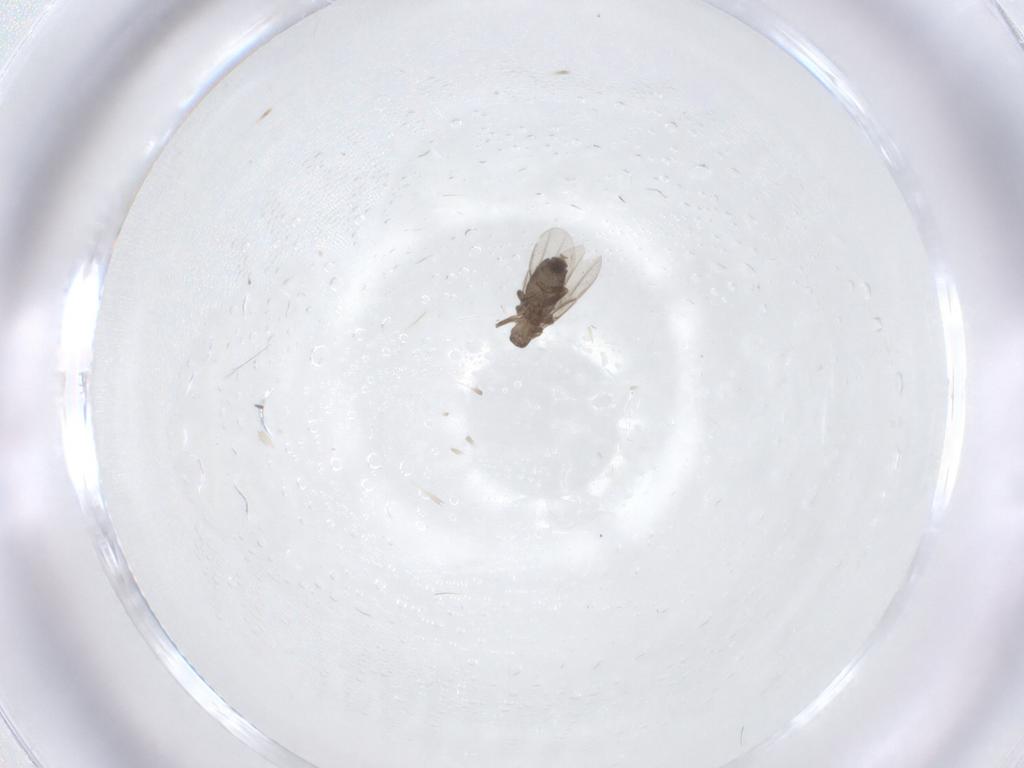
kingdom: Animalia
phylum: Arthropoda
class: Insecta
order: Diptera
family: Phoridae
